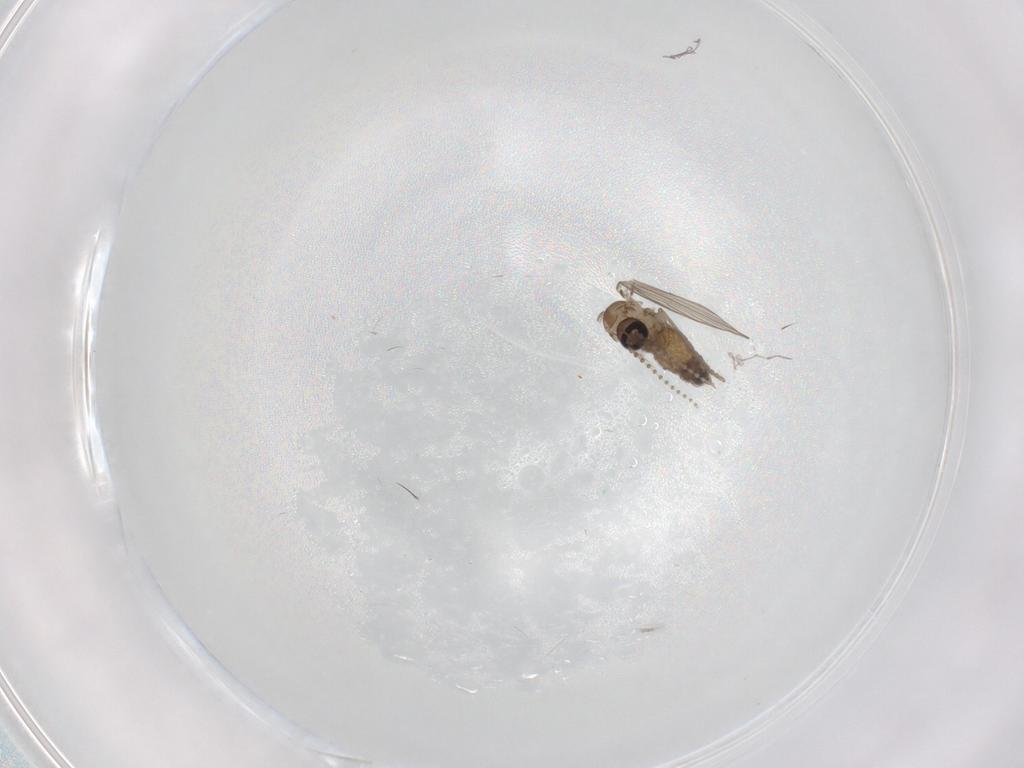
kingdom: Animalia
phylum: Arthropoda
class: Insecta
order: Diptera
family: Psychodidae
